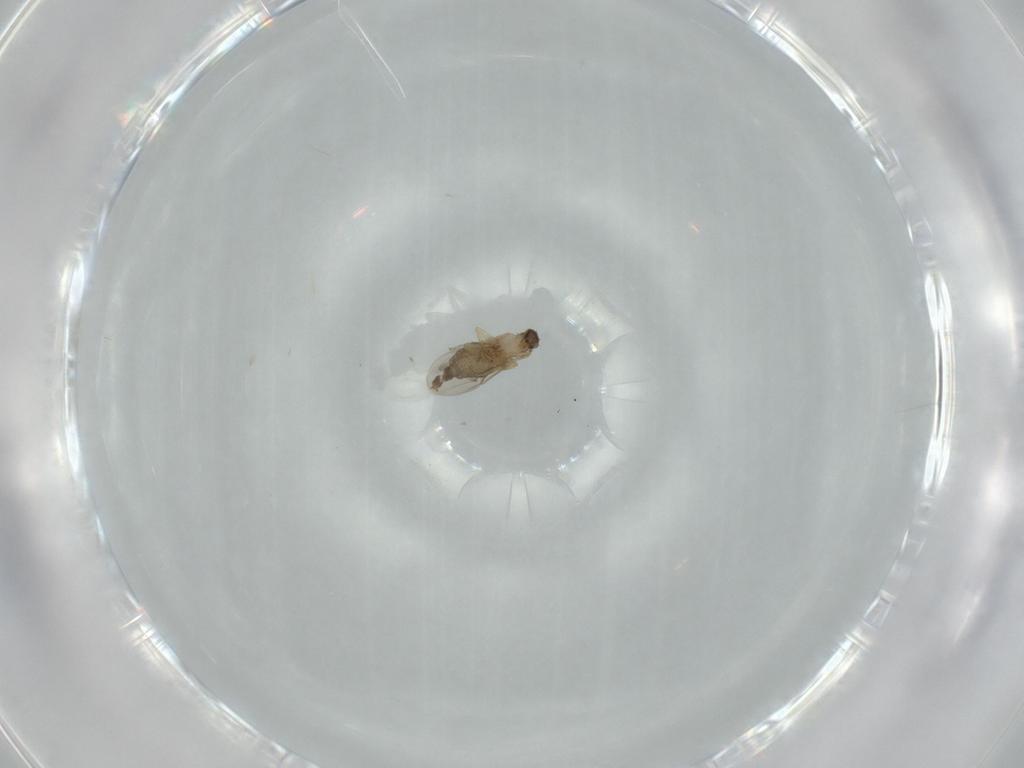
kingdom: Animalia
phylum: Arthropoda
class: Insecta
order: Diptera
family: Phoridae
